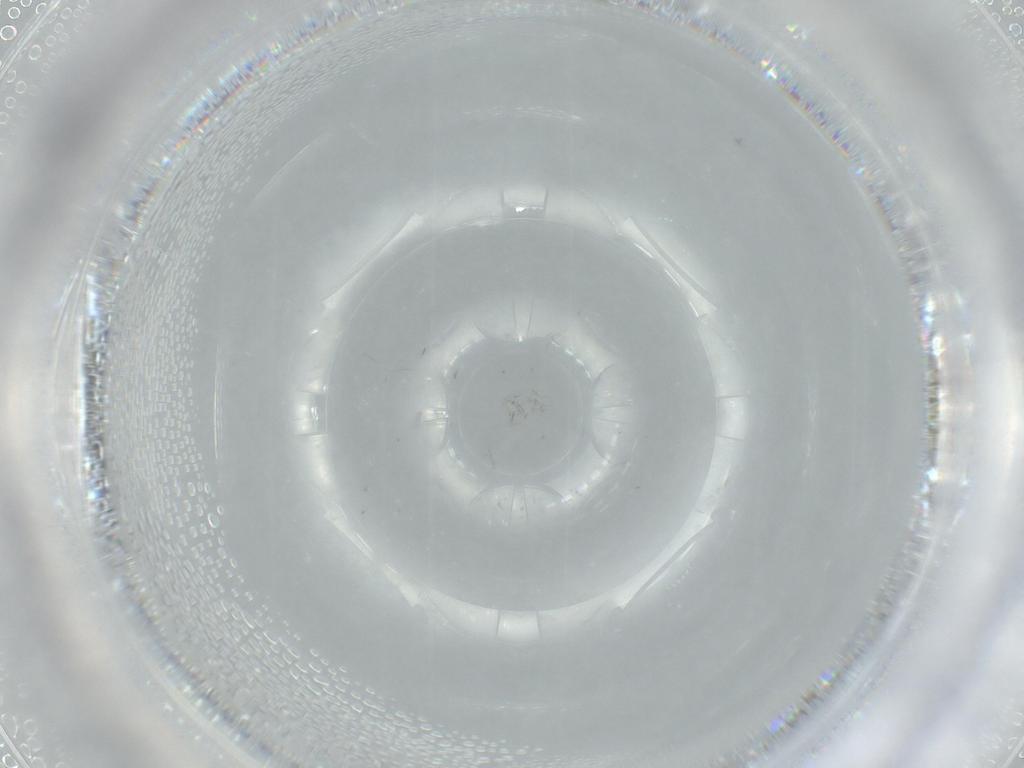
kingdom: Animalia
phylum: Arthropoda
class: Insecta
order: Diptera
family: Phoridae
